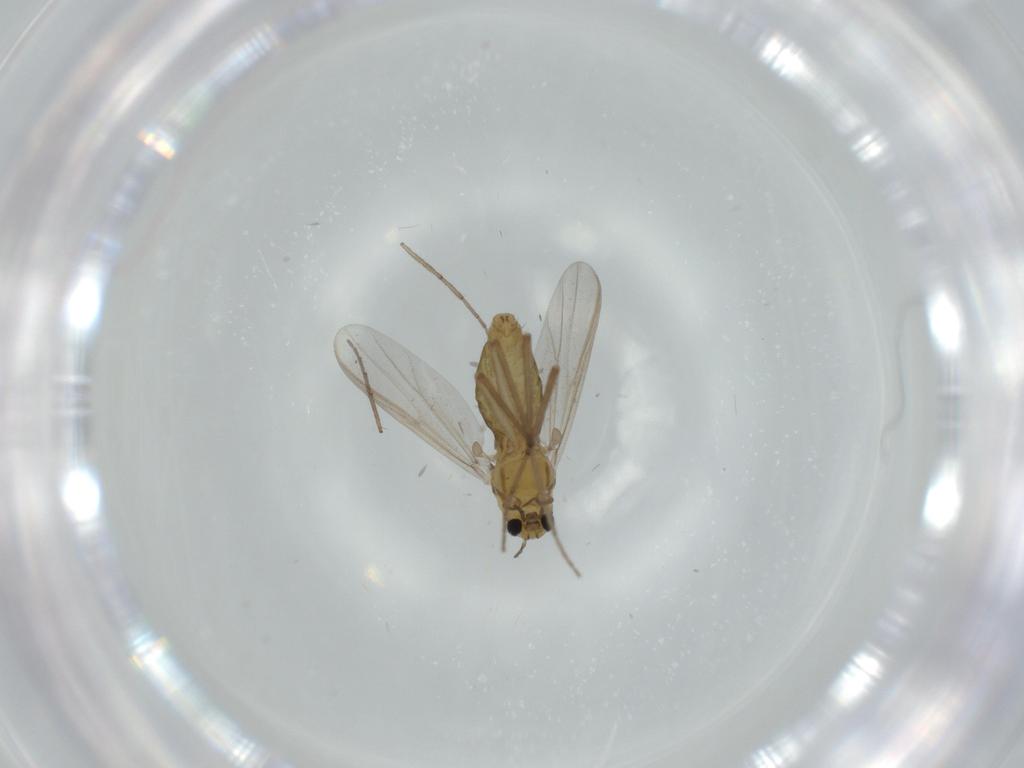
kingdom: Animalia
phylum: Arthropoda
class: Insecta
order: Diptera
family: Chironomidae
